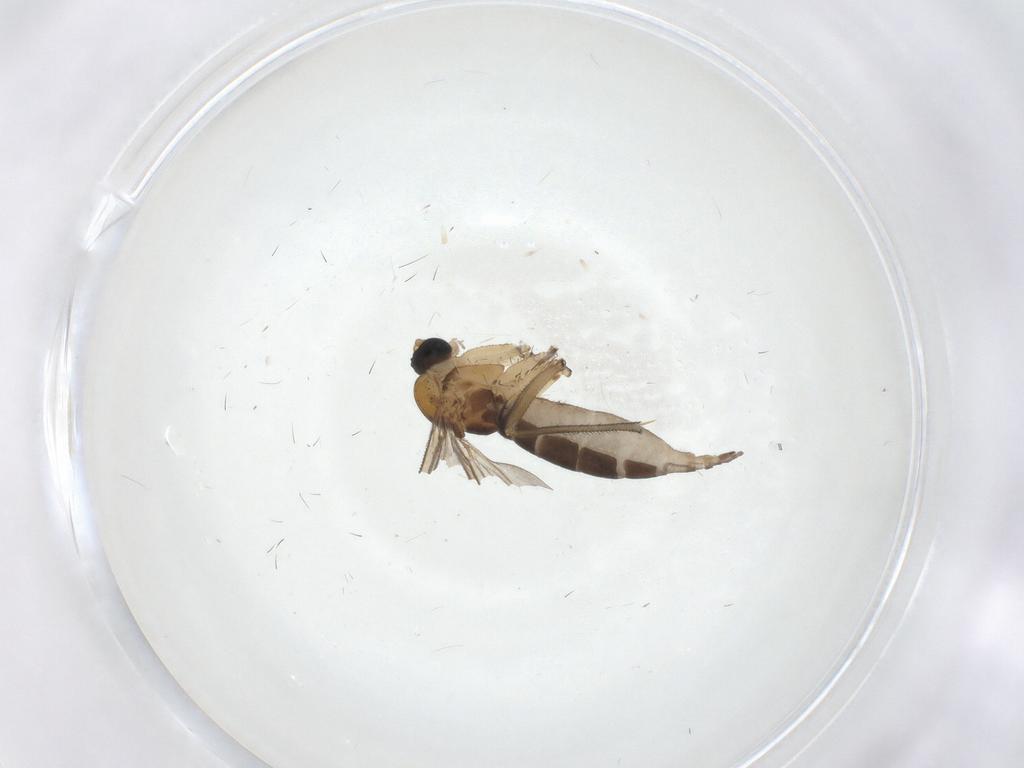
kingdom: Animalia
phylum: Arthropoda
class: Insecta
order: Diptera
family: Sciaridae
